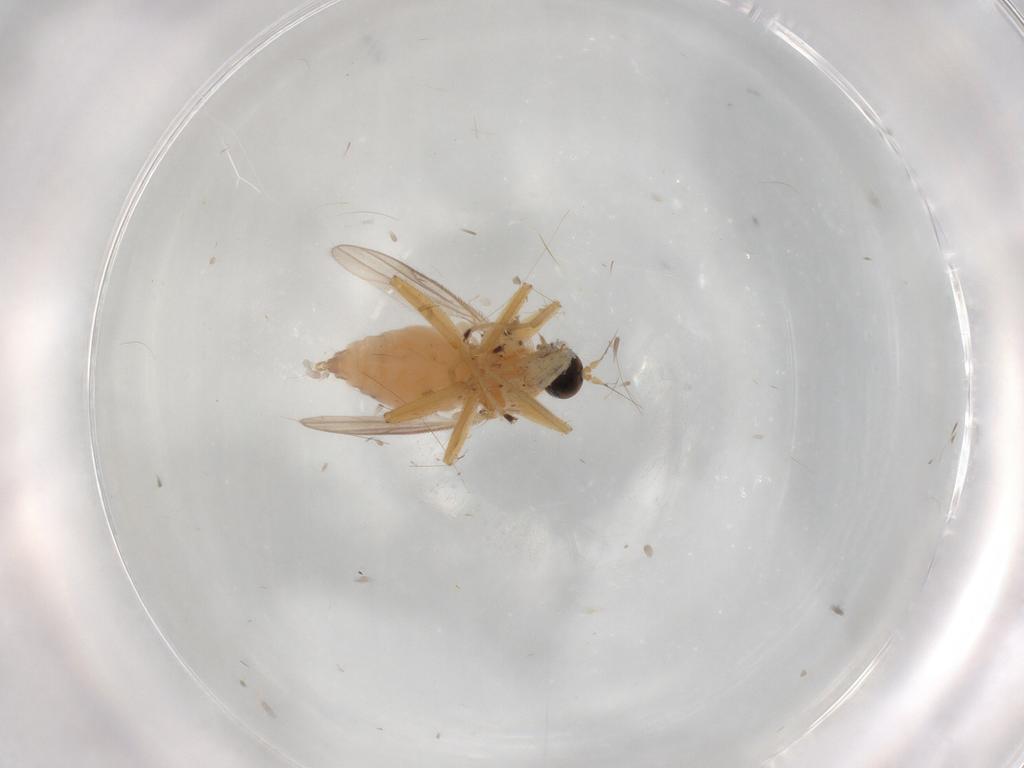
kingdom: Animalia
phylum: Arthropoda
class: Insecta
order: Diptera
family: Hybotidae
